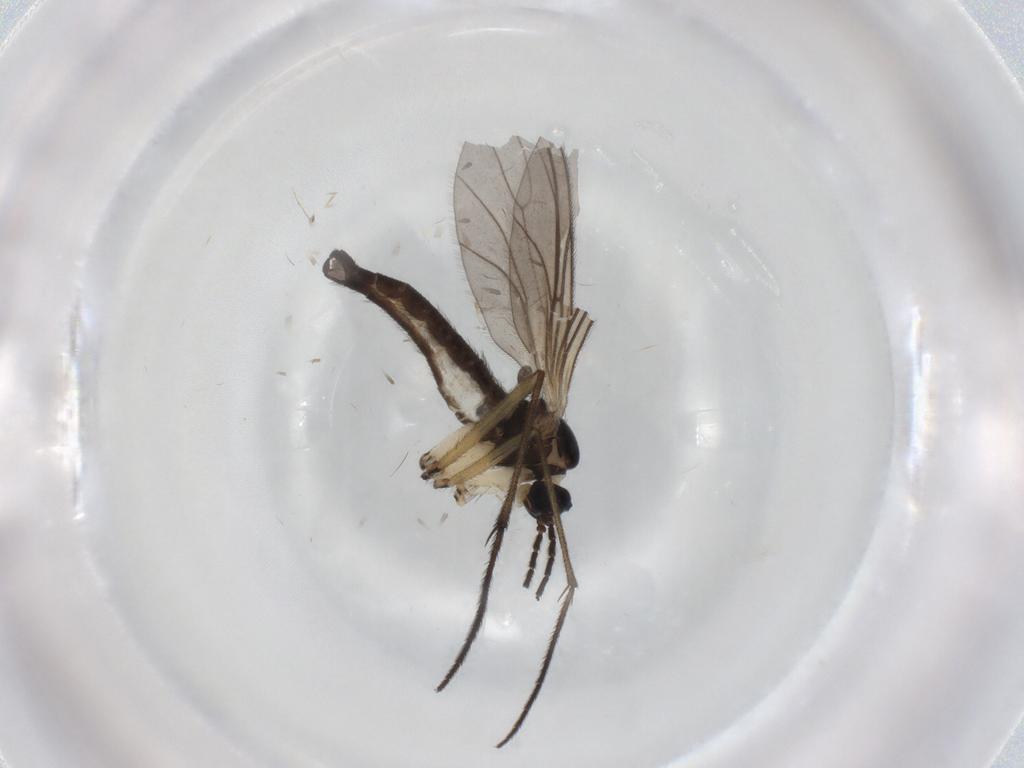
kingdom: Animalia
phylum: Arthropoda
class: Insecta
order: Diptera
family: Sciaridae
